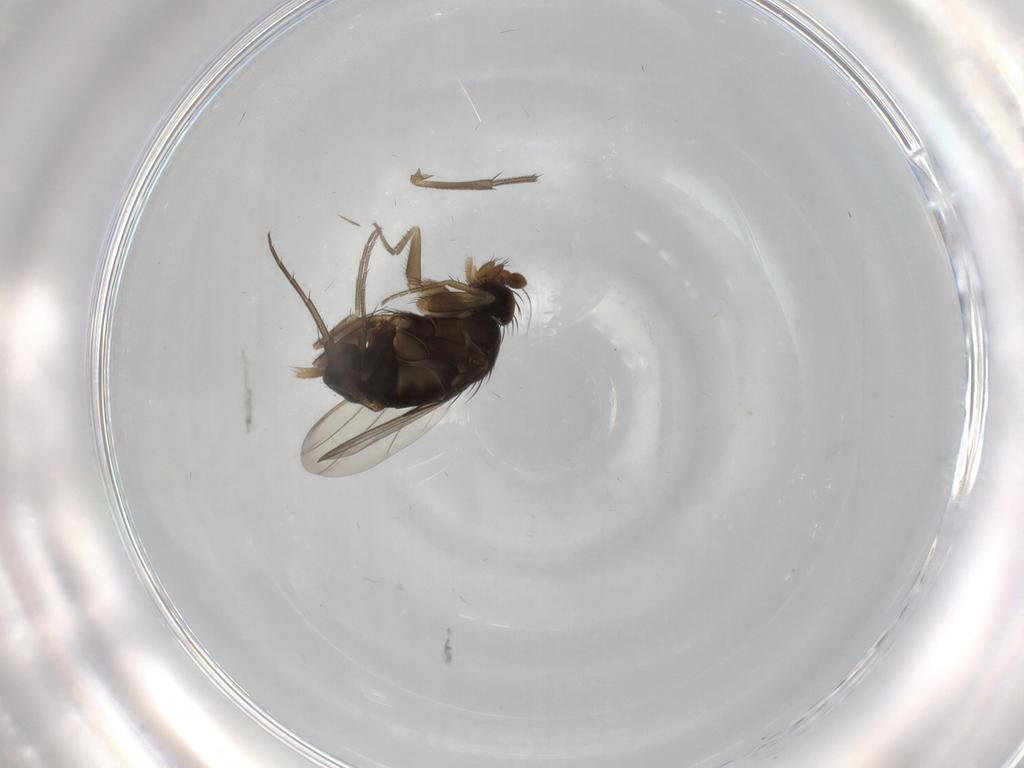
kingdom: Animalia
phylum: Arthropoda
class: Insecta
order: Diptera
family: Phoridae
